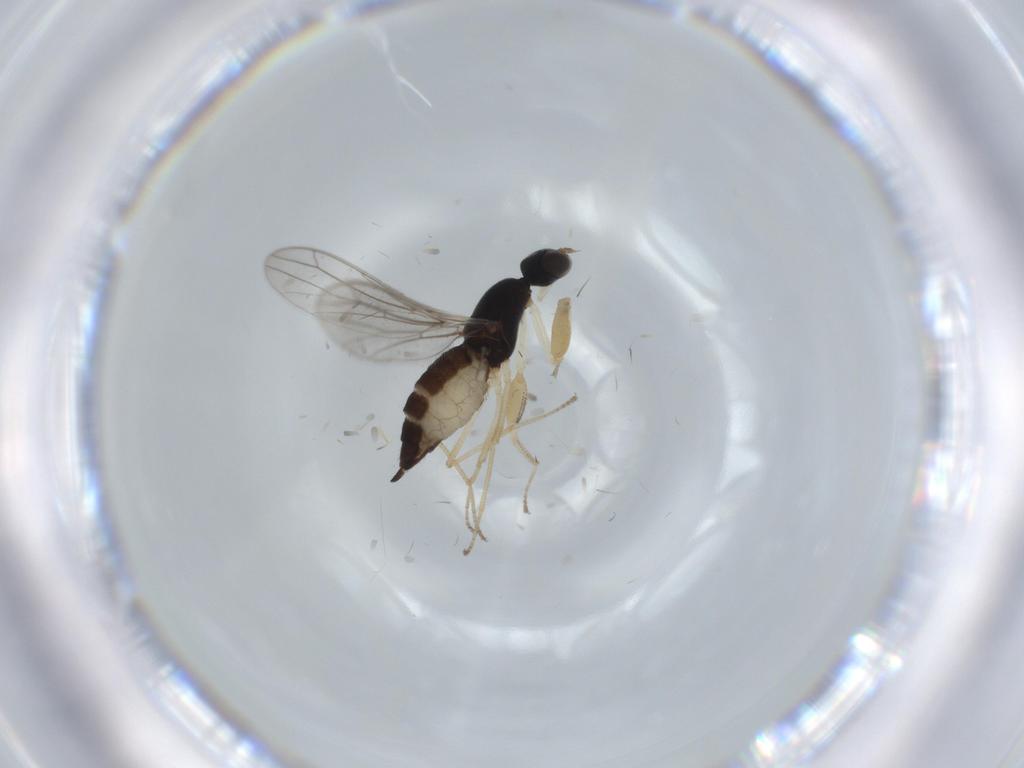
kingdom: Animalia
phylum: Arthropoda
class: Insecta
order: Diptera
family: Empididae
